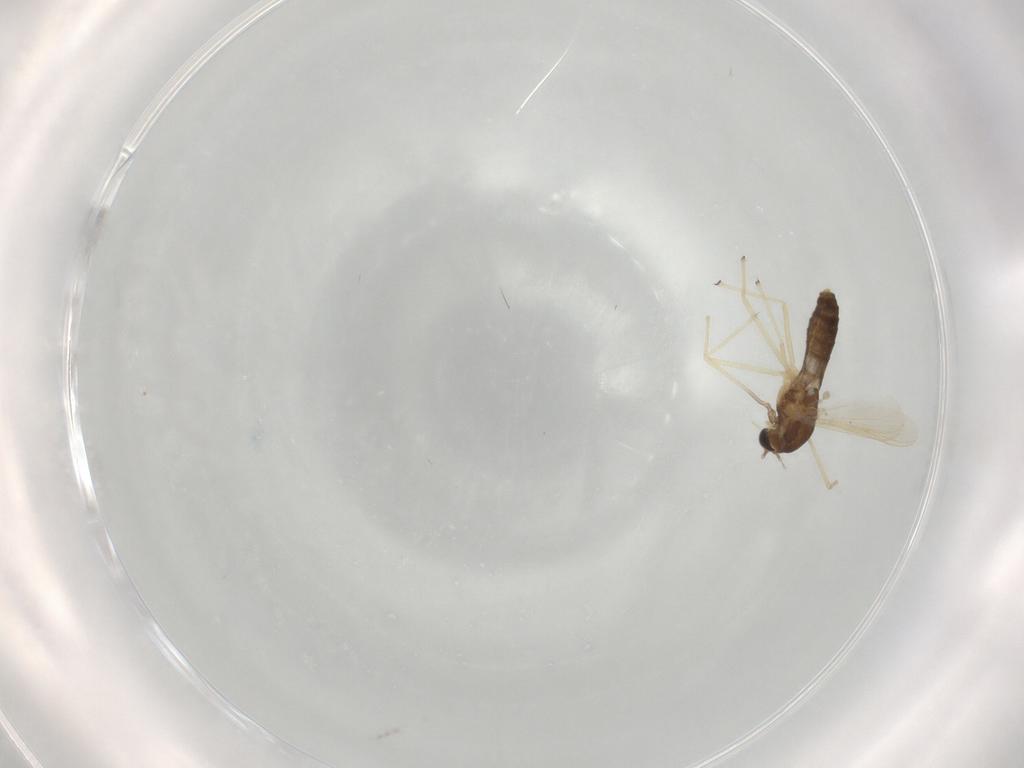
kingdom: Animalia
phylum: Arthropoda
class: Insecta
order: Diptera
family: Chironomidae
